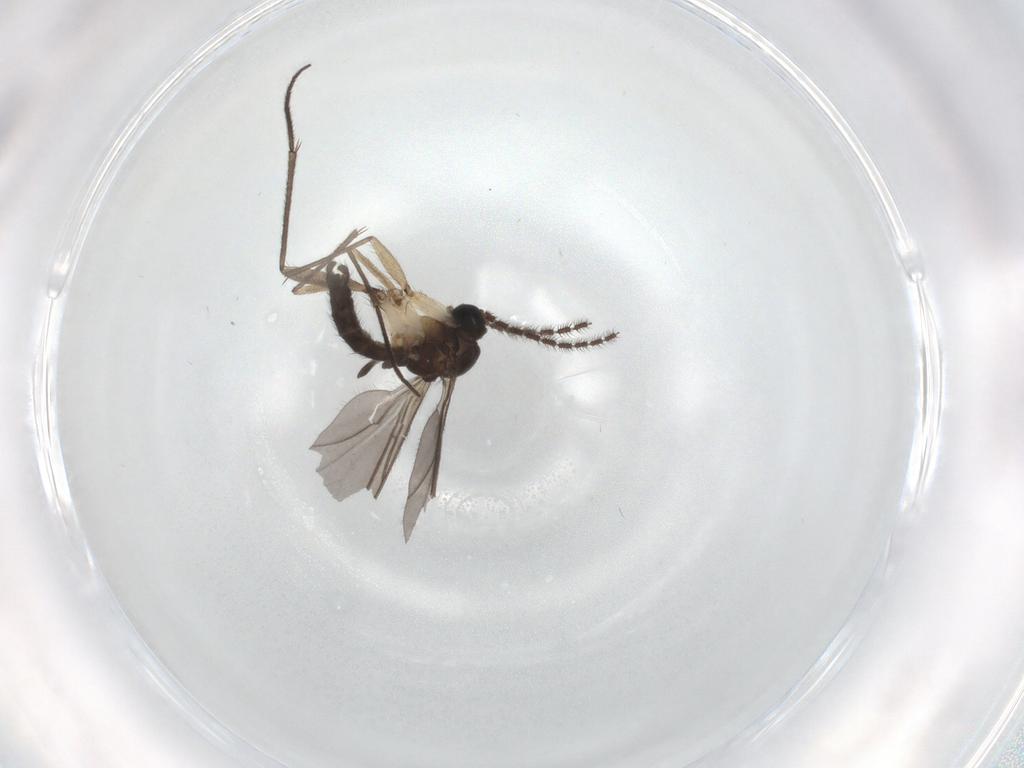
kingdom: Animalia
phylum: Arthropoda
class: Insecta
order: Diptera
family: Sciaridae
